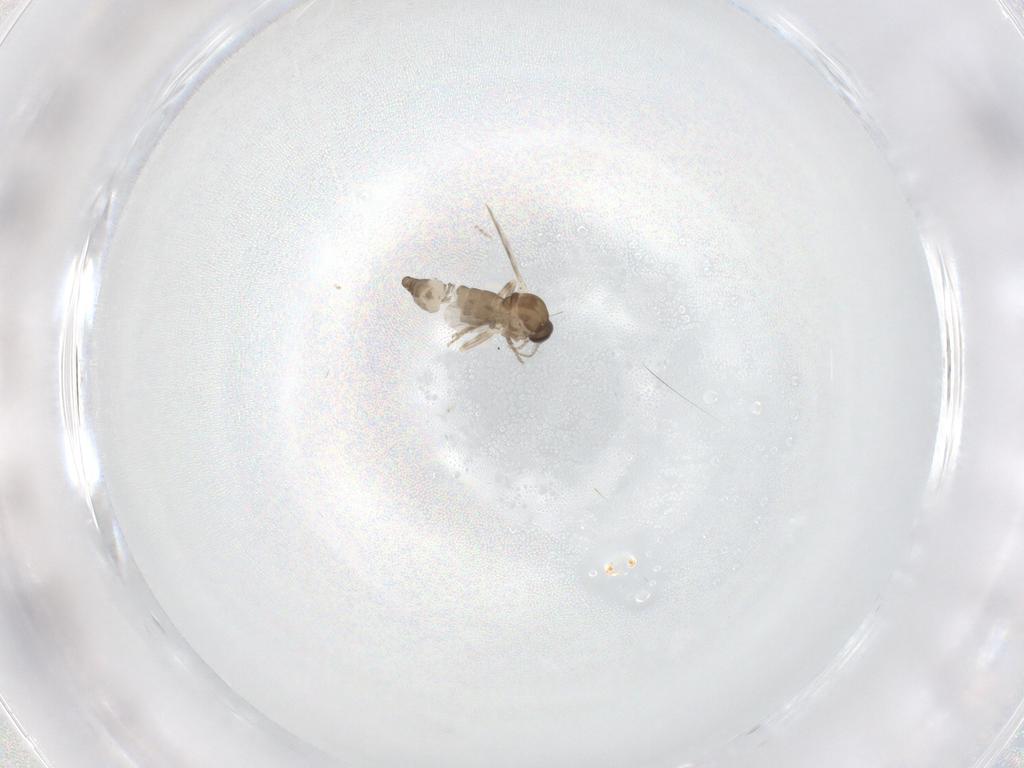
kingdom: Animalia
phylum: Arthropoda
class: Insecta
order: Diptera
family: Ceratopogonidae
